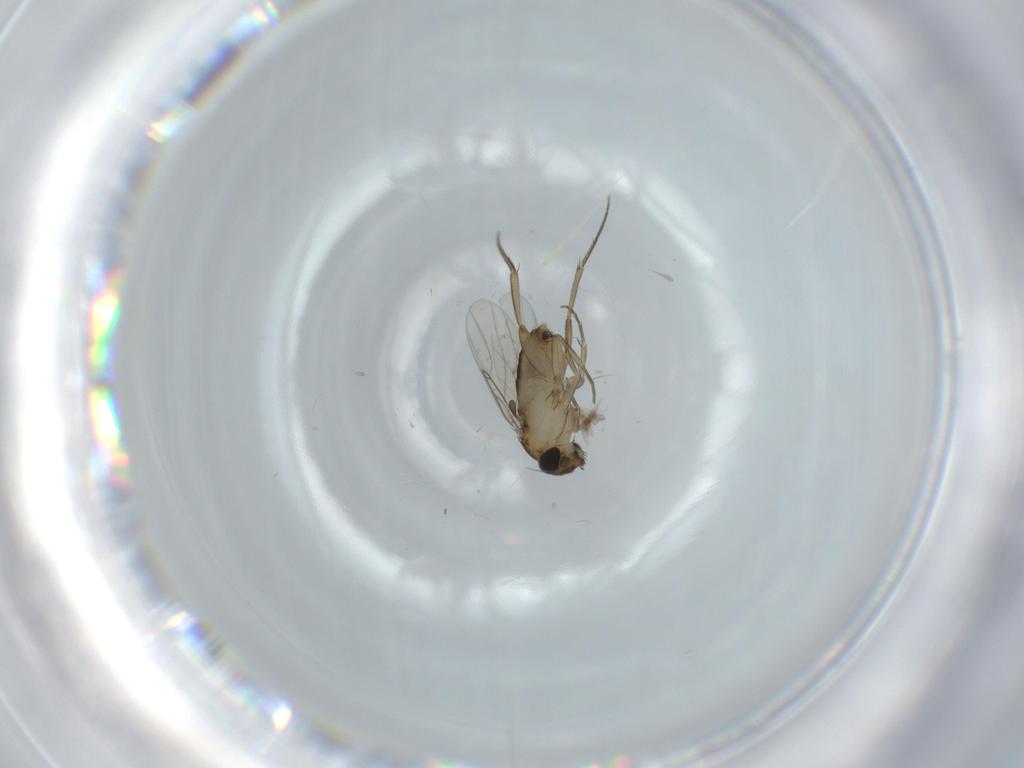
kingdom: Animalia
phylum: Arthropoda
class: Insecta
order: Diptera
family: Phoridae
